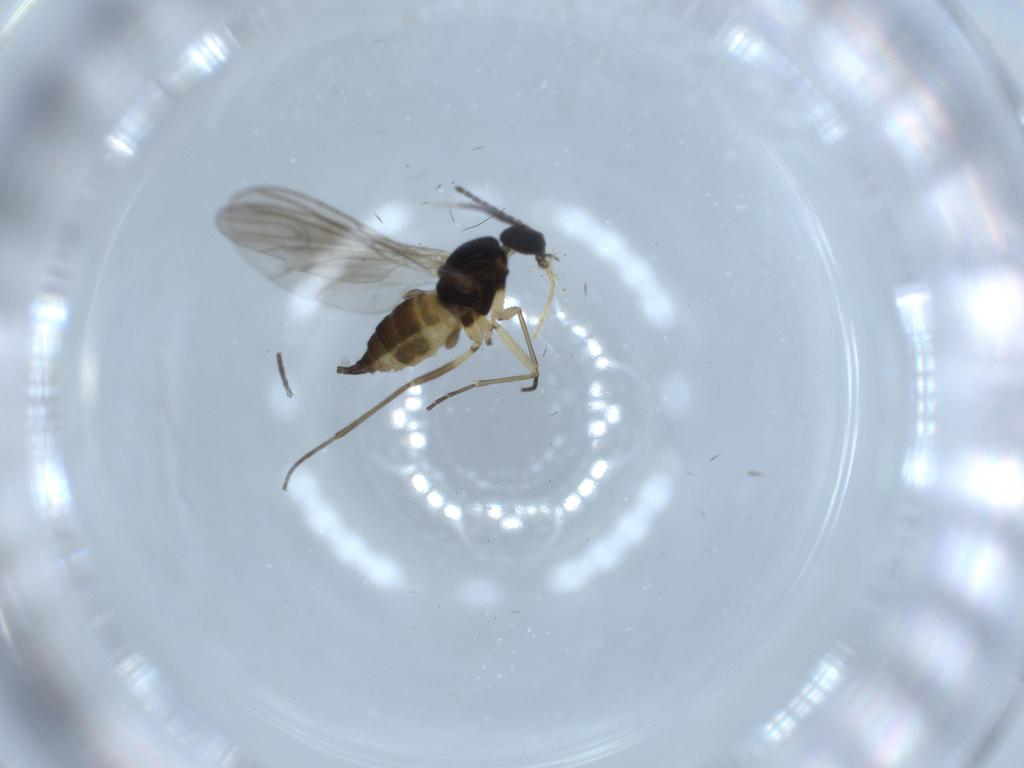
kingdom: Animalia
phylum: Arthropoda
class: Insecta
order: Diptera
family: Sciaridae
